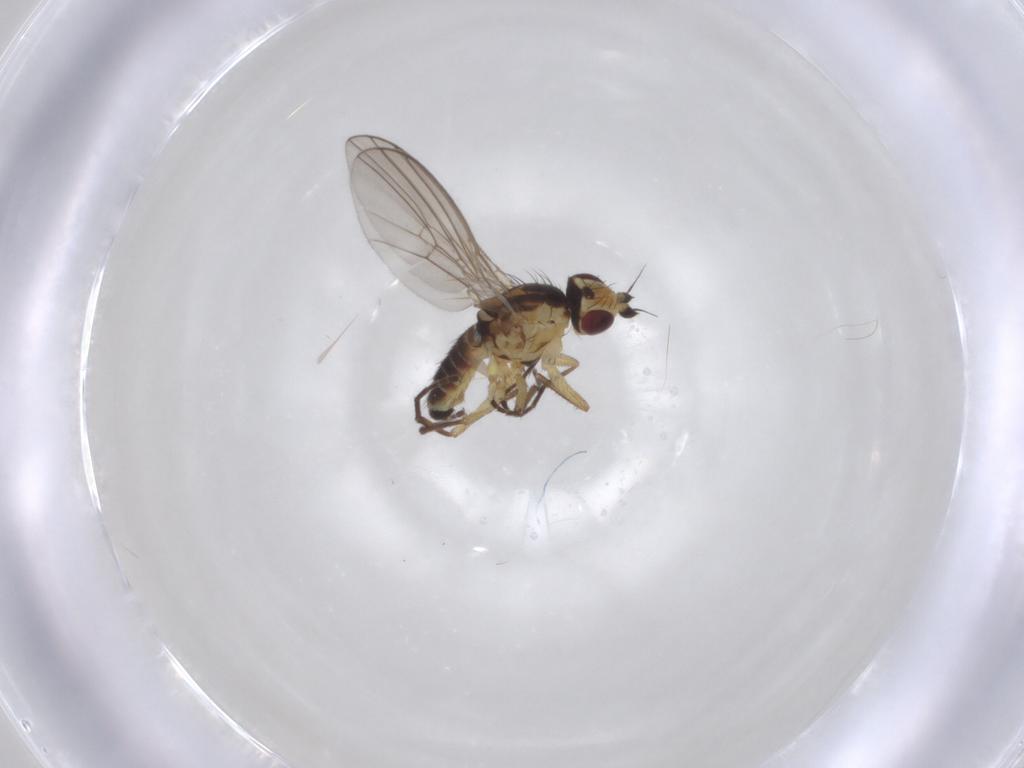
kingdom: Animalia
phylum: Arthropoda
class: Insecta
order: Diptera
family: Agromyzidae
